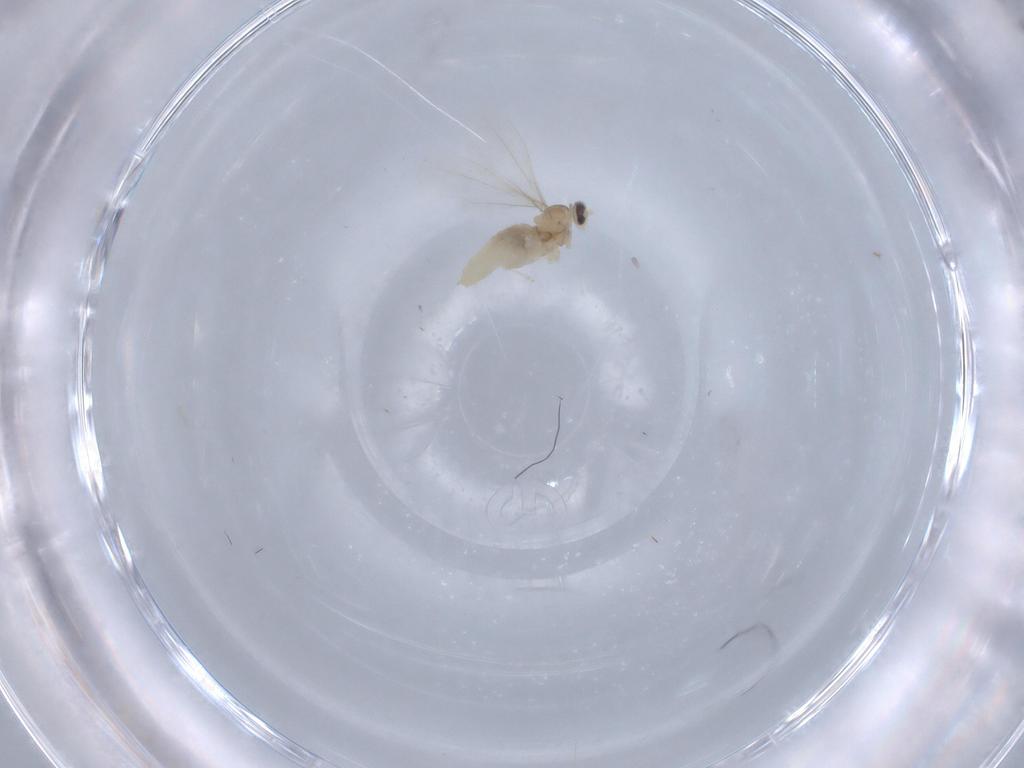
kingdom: Animalia
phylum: Arthropoda
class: Insecta
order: Diptera
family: Cecidomyiidae
